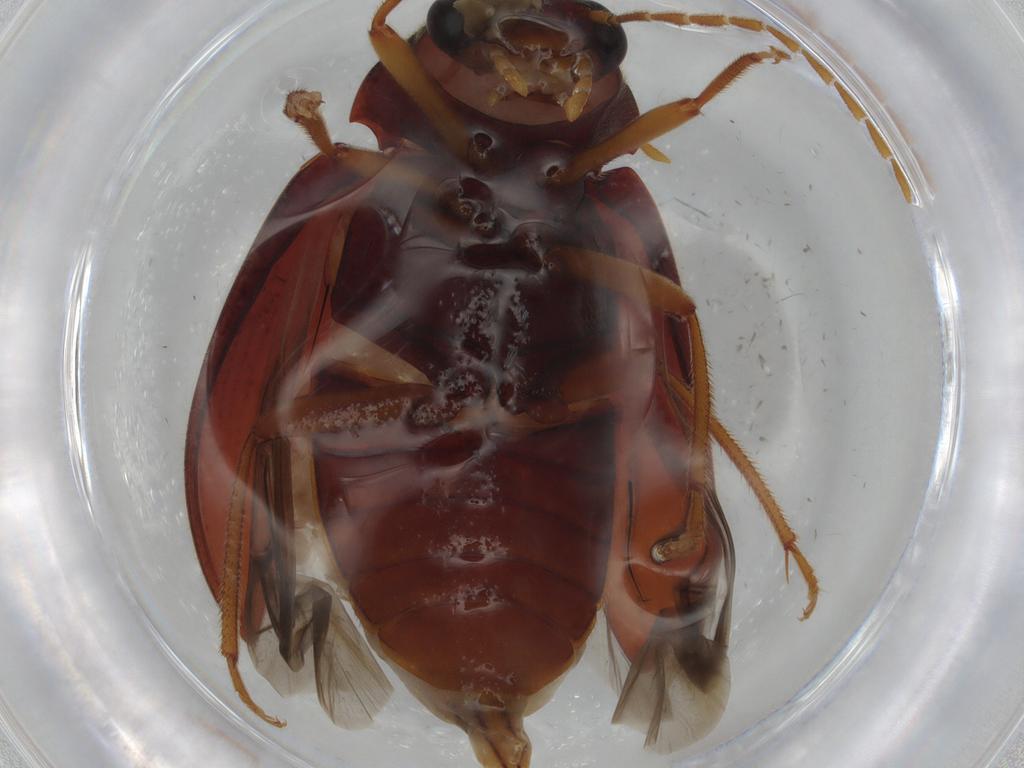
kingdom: Animalia
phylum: Arthropoda
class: Insecta
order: Coleoptera
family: Ptilodactylidae
